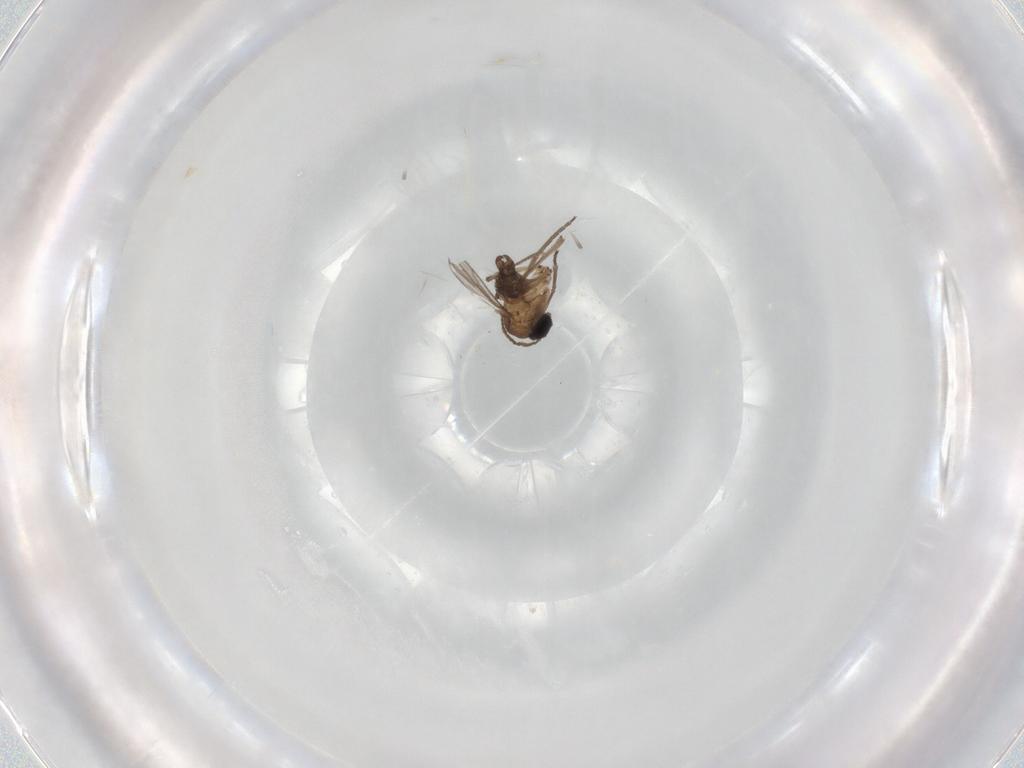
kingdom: Animalia
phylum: Arthropoda
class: Insecta
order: Diptera
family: Sciaridae
